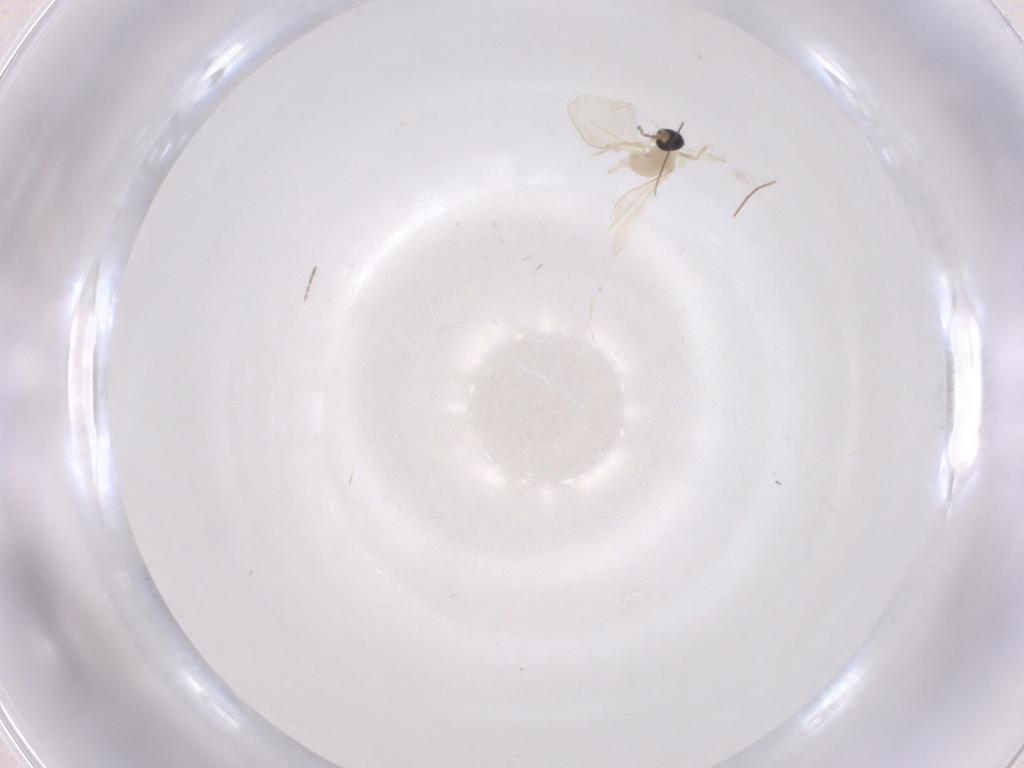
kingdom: Animalia
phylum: Arthropoda
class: Insecta
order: Diptera
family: Cecidomyiidae
